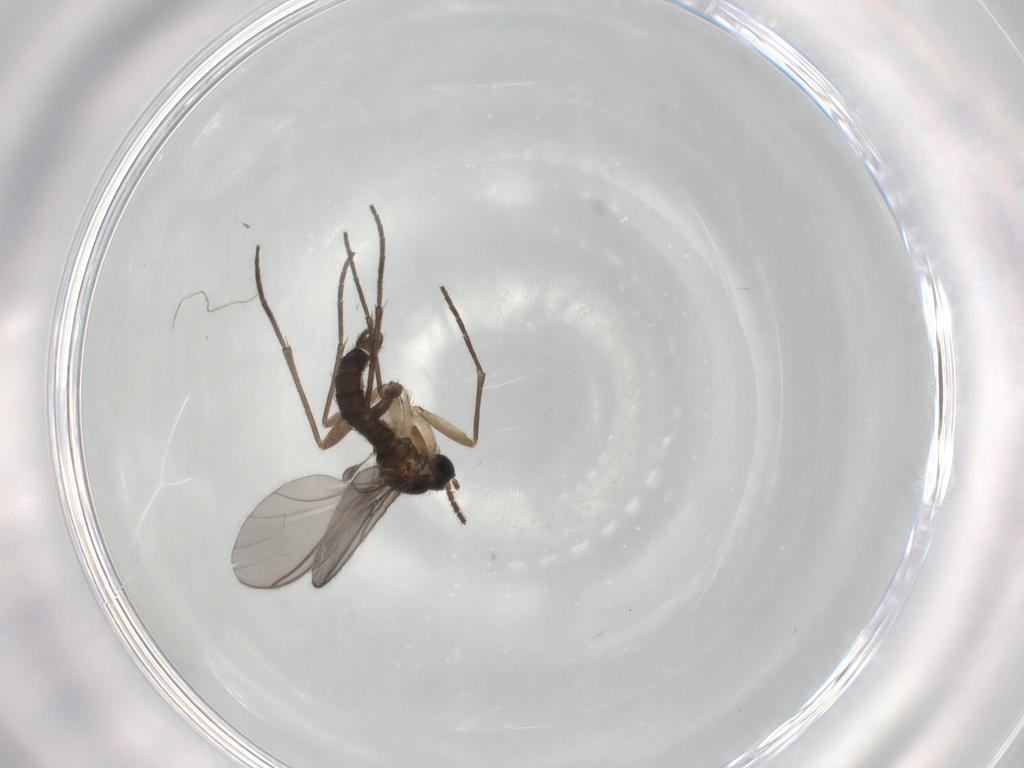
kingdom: Animalia
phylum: Arthropoda
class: Insecta
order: Diptera
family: Sciaridae
